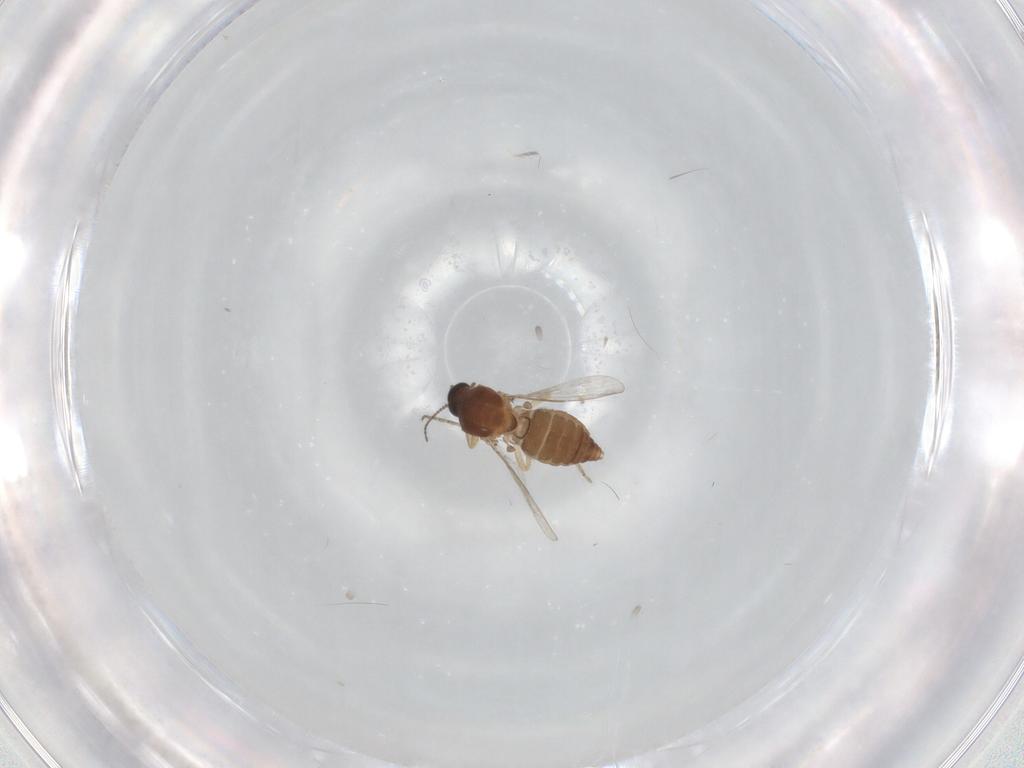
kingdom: Animalia
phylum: Arthropoda
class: Insecta
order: Diptera
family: Ceratopogonidae
